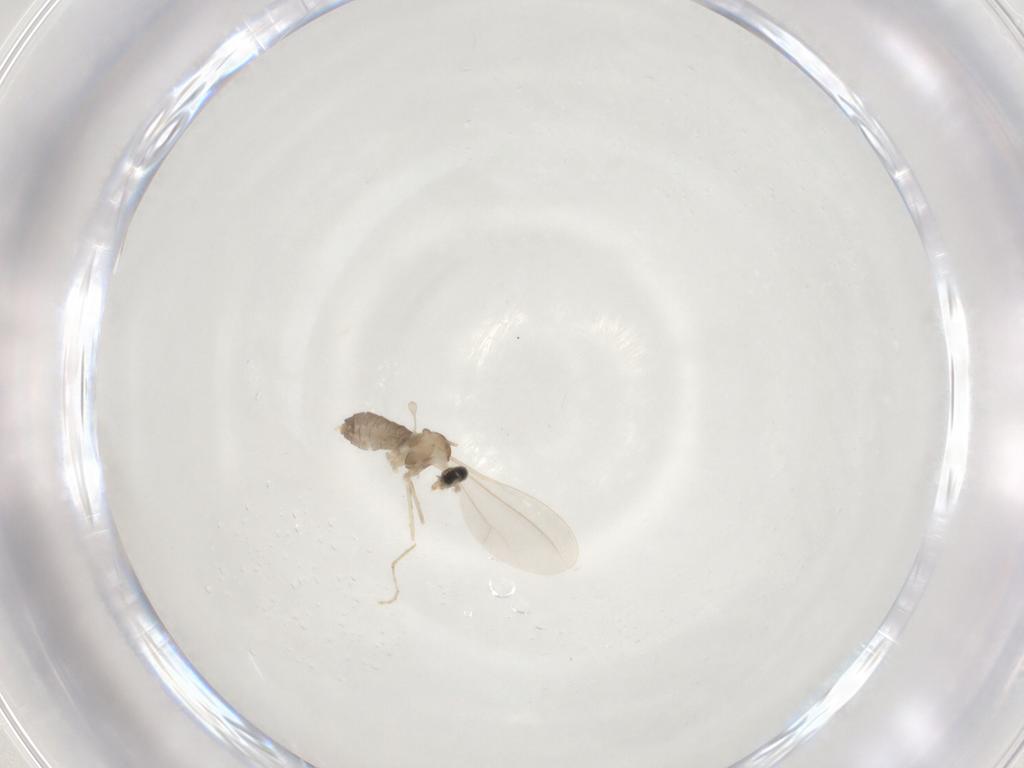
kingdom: Animalia
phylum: Arthropoda
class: Insecta
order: Diptera
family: Cecidomyiidae
